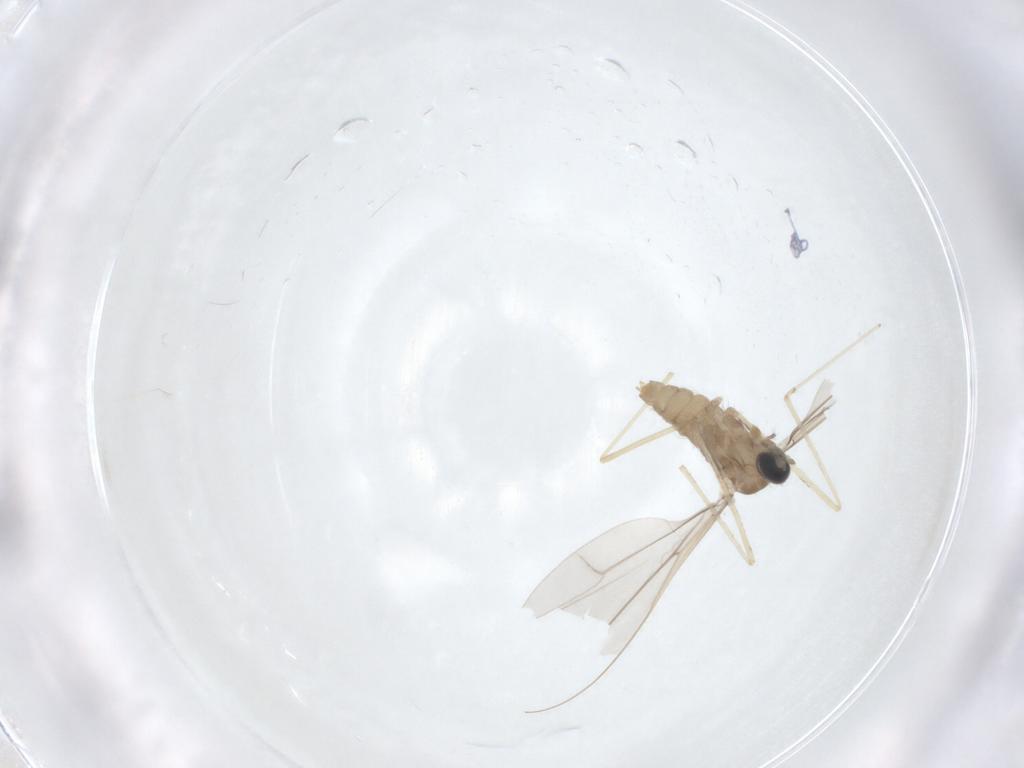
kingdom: Animalia
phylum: Arthropoda
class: Insecta
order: Diptera
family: Cecidomyiidae
